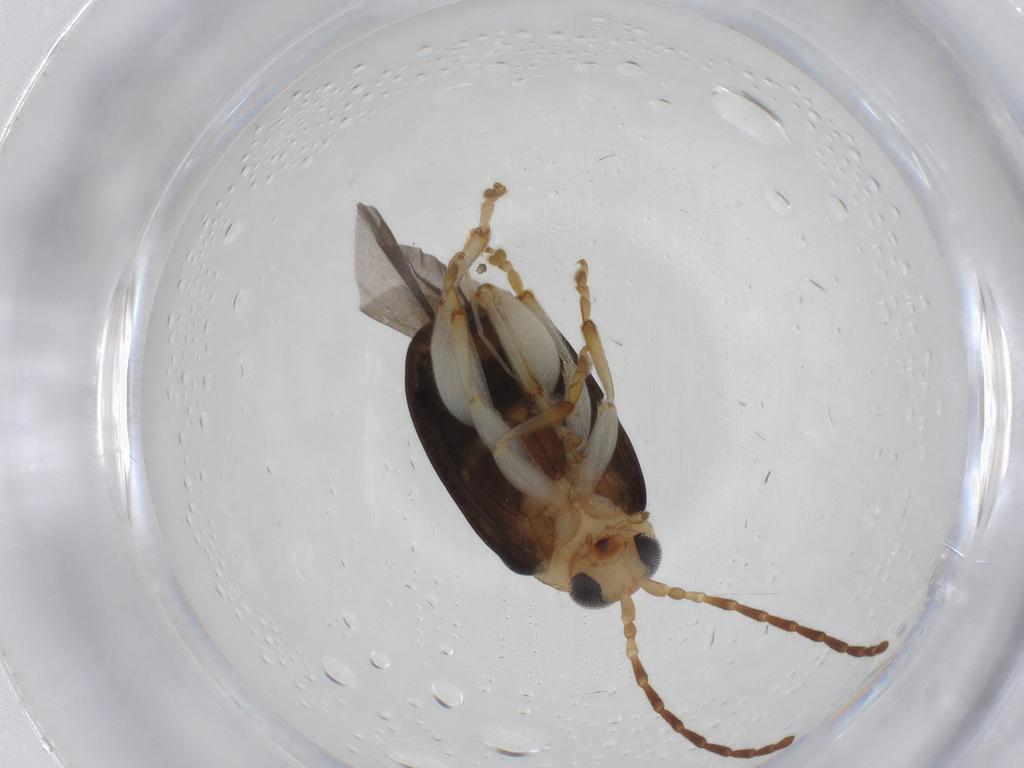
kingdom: Animalia
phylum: Arthropoda
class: Insecta
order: Coleoptera
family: Chrysomelidae
